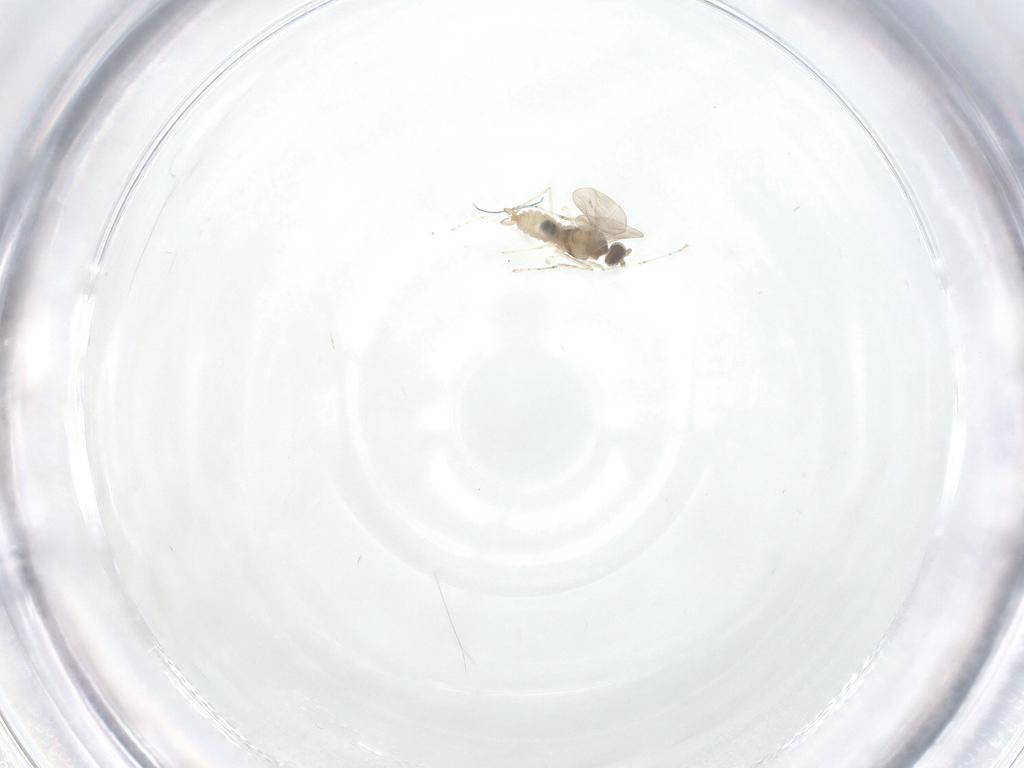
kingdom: Animalia
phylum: Arthropoda
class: Insecta
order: Diptera
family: Cecidomyiidae
